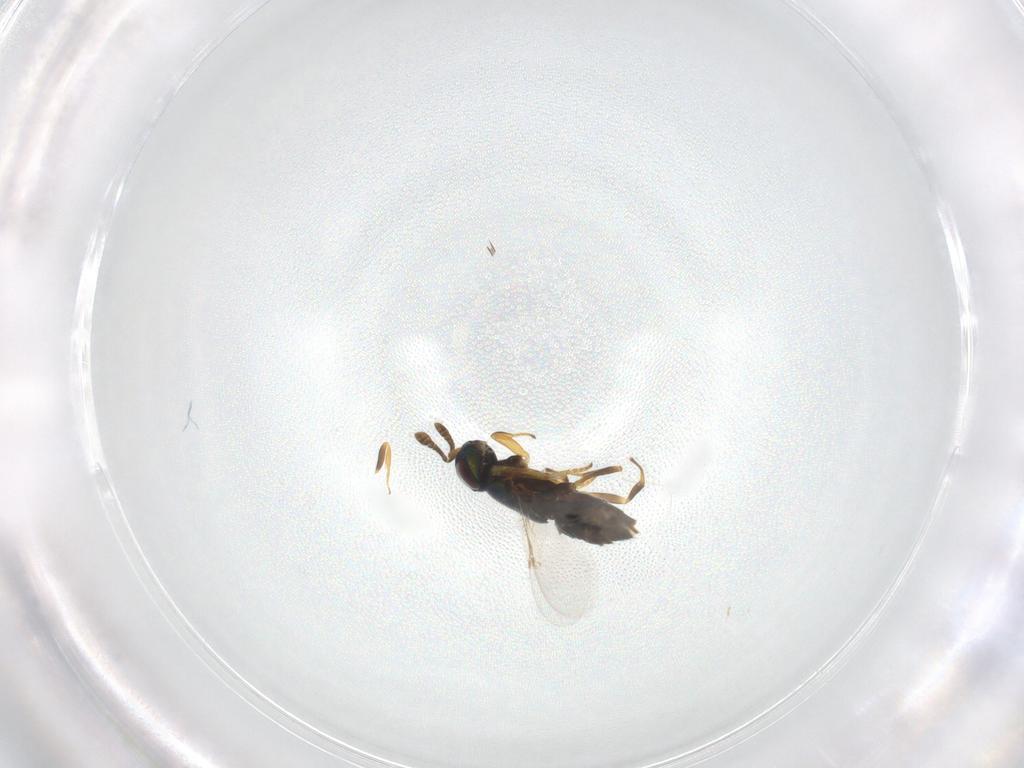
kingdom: Animalia
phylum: Arthropoda
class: Insecta
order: Hymenoptera
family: Encyrtidae
